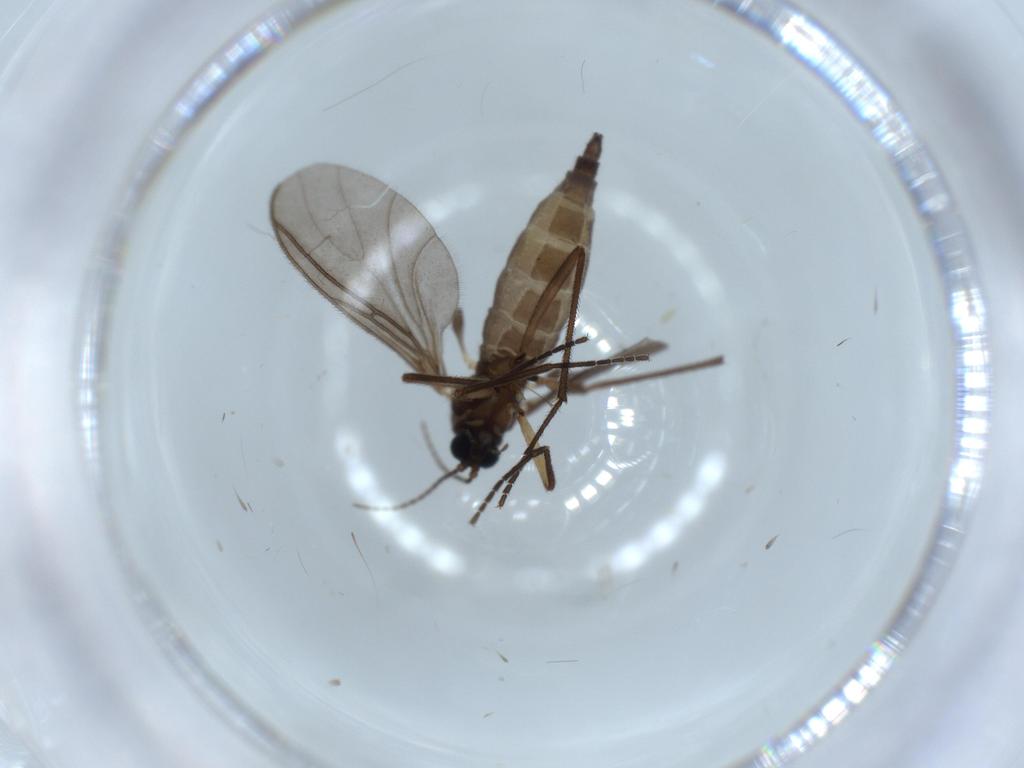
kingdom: Animalia
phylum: Arthropoda
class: Insecta
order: Diptera
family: Sciaridae
